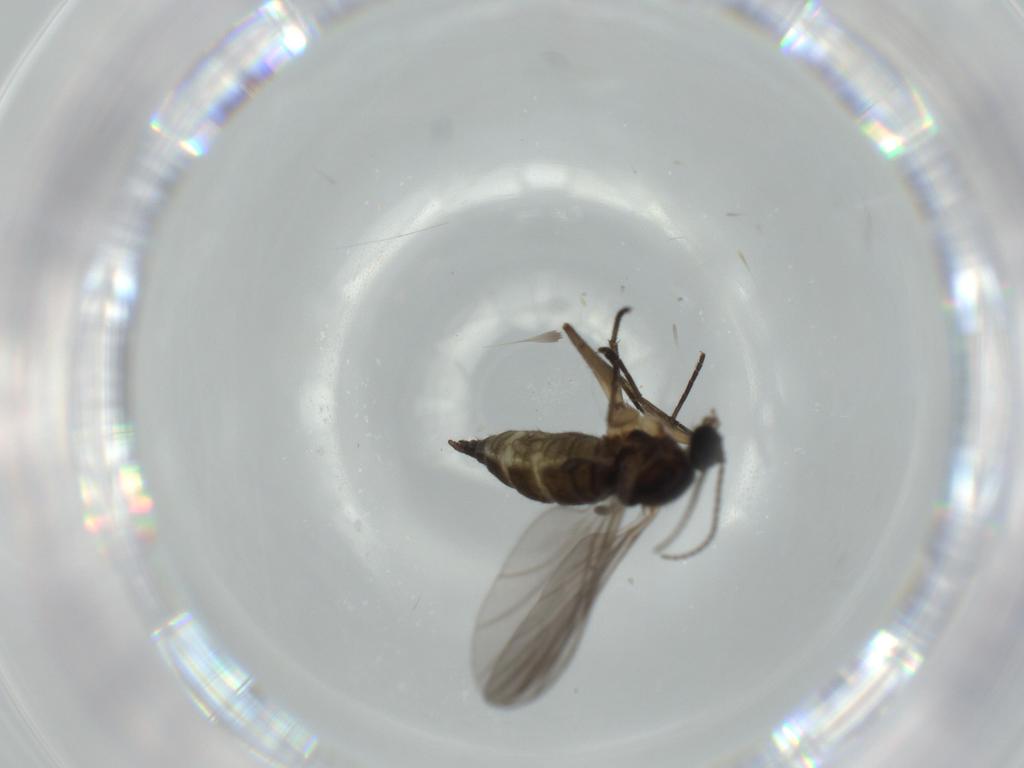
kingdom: Animalia
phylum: Arthropoda
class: Insecta
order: Diptera
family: Sciaridae
